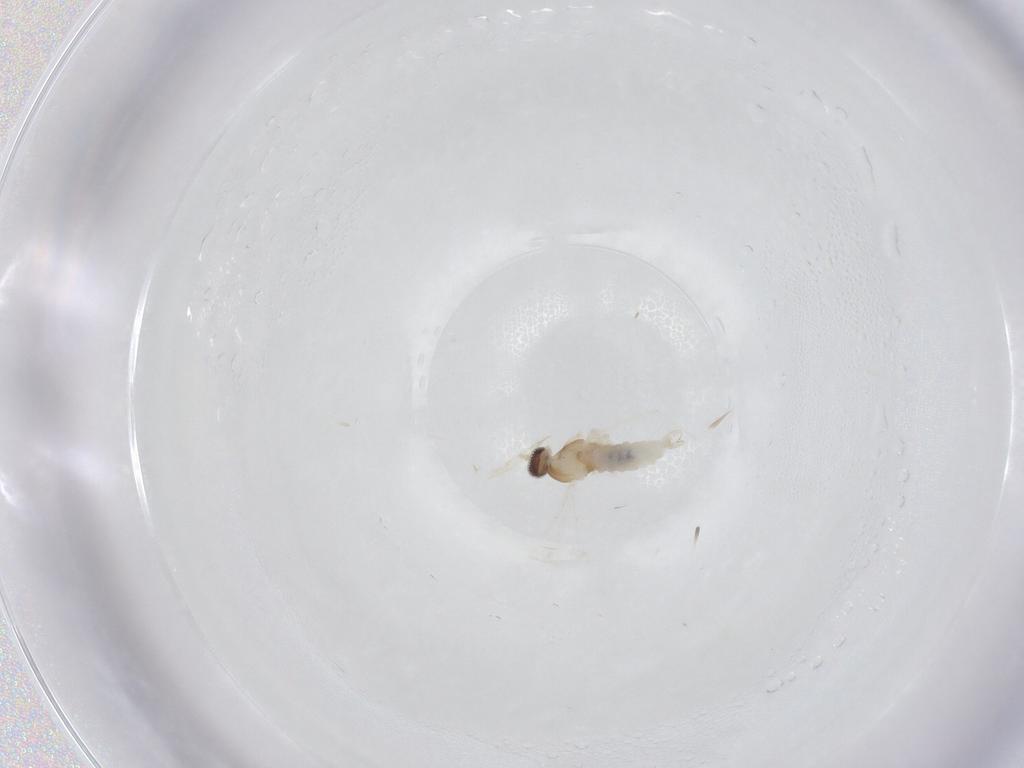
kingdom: Animalia
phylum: Arthropoda
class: Insecta
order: Diptera
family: Cecidomyiidae
